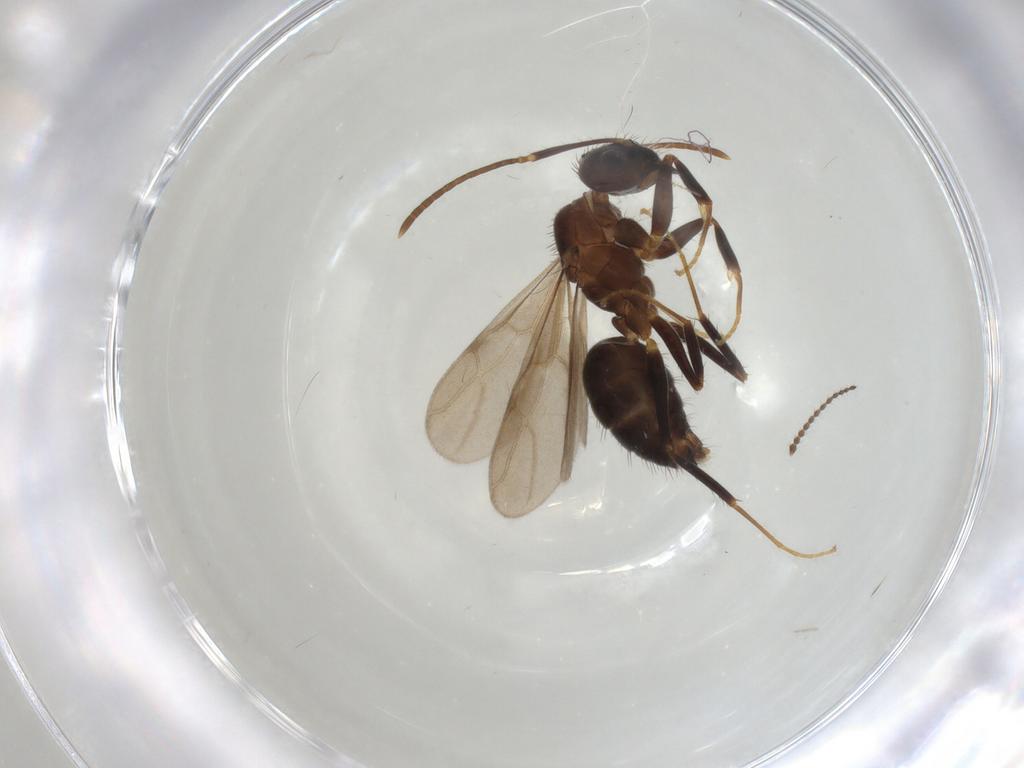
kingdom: Animalia
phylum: Arthropoda
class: Insecta
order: Hymenoptera
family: Formicidae
